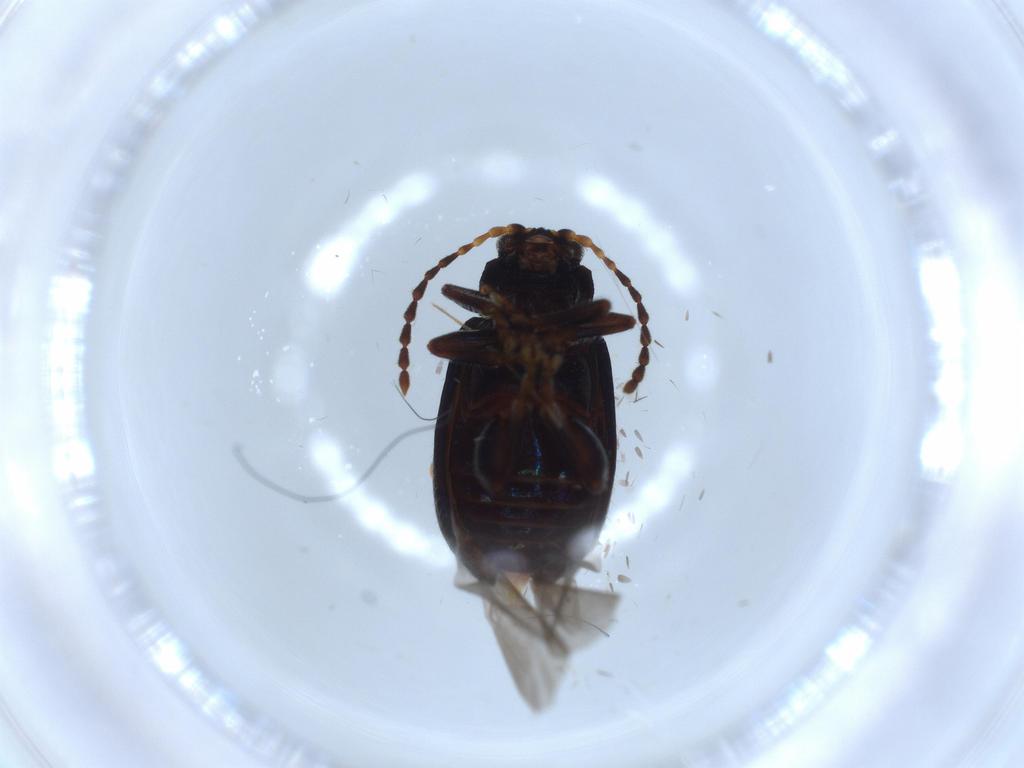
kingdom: Animalia
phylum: Arthropoda
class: Insecta
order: Coleoptera
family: Chrysomelidae
